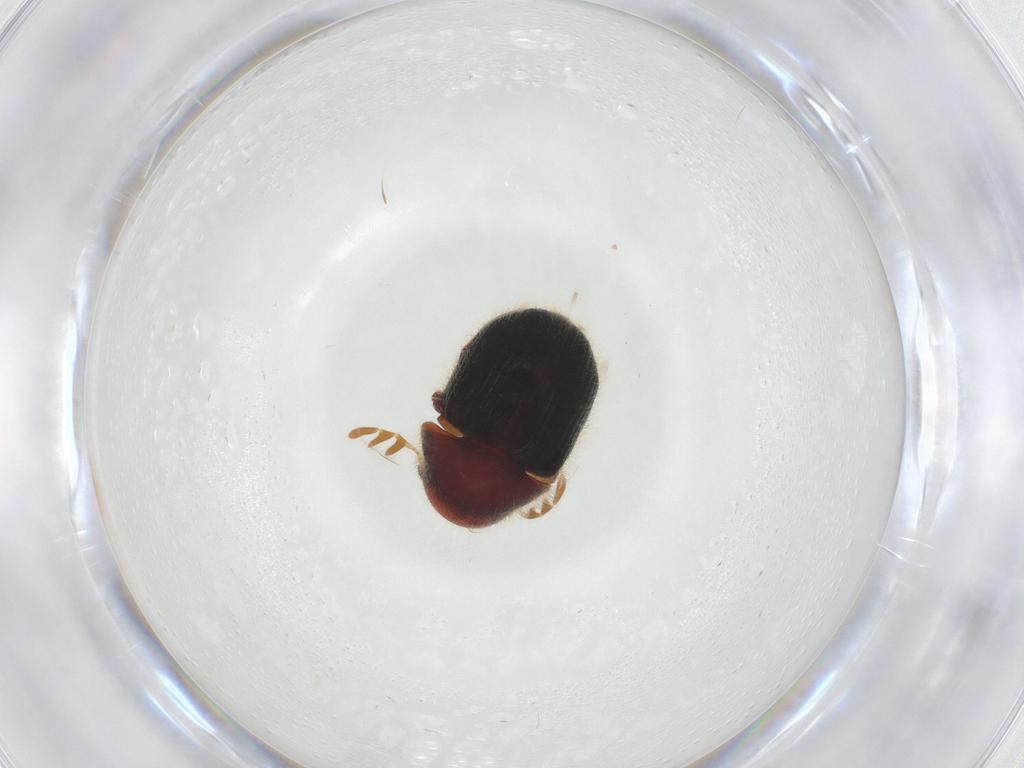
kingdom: Animalia
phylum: Arthropoda
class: Insecta
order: Coleoptera
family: Ptinidae
